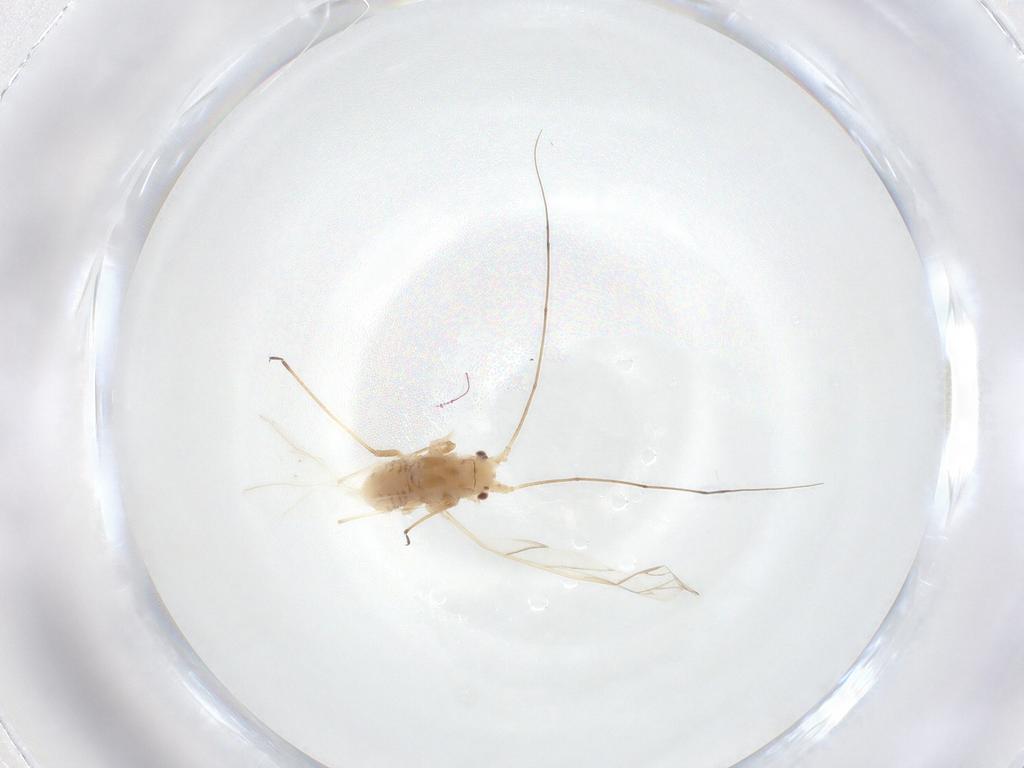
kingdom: Animalia
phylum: Arthropoda
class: Insecta
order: Hemiptera
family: Aphididae
